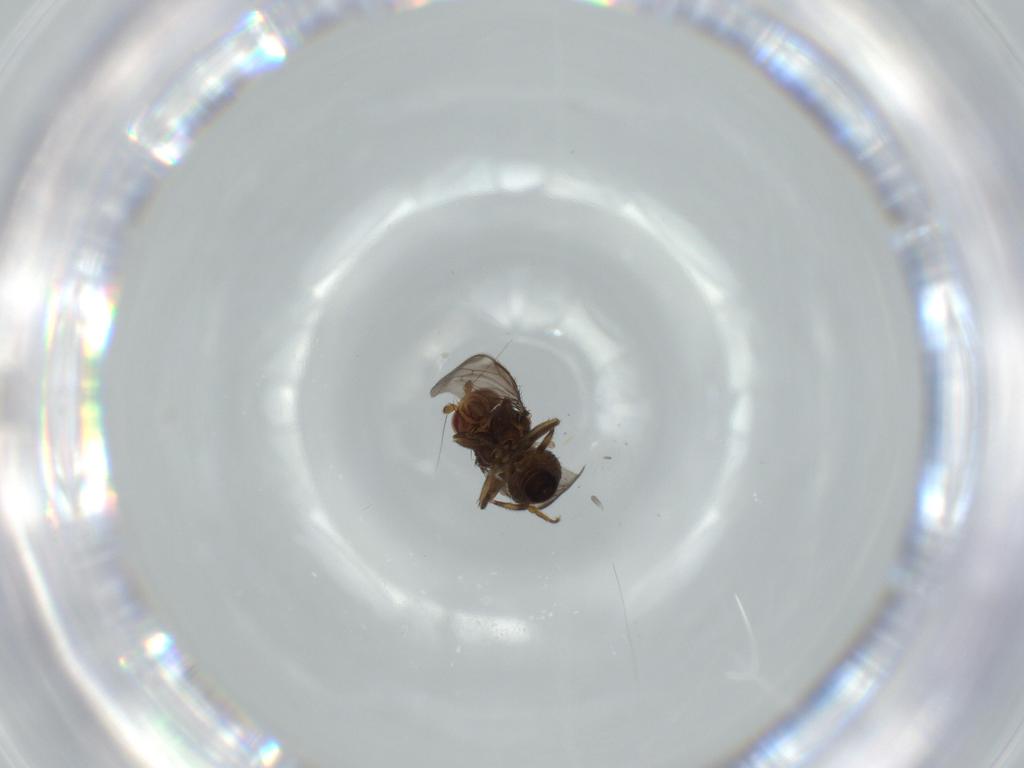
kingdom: Animalia
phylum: Arthropoda
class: Insecta
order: Diptera
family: Sphaeroceridae
